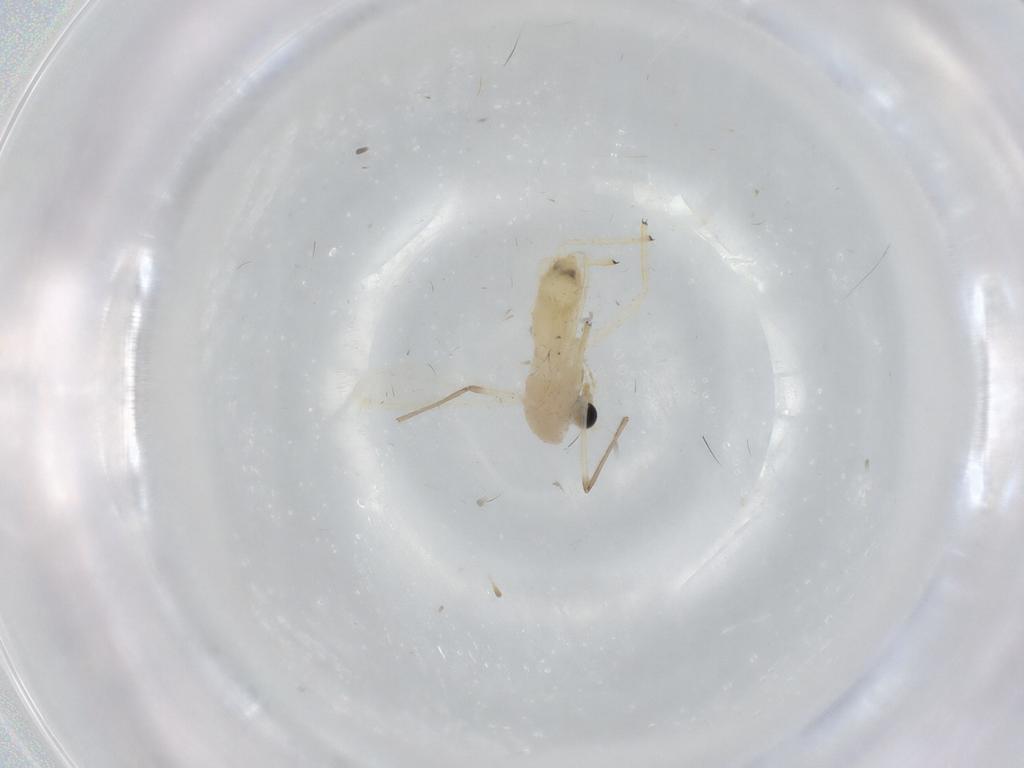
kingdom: Animalia
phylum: Arthropoda
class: Insecta
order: Diptera
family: Chironomidae
